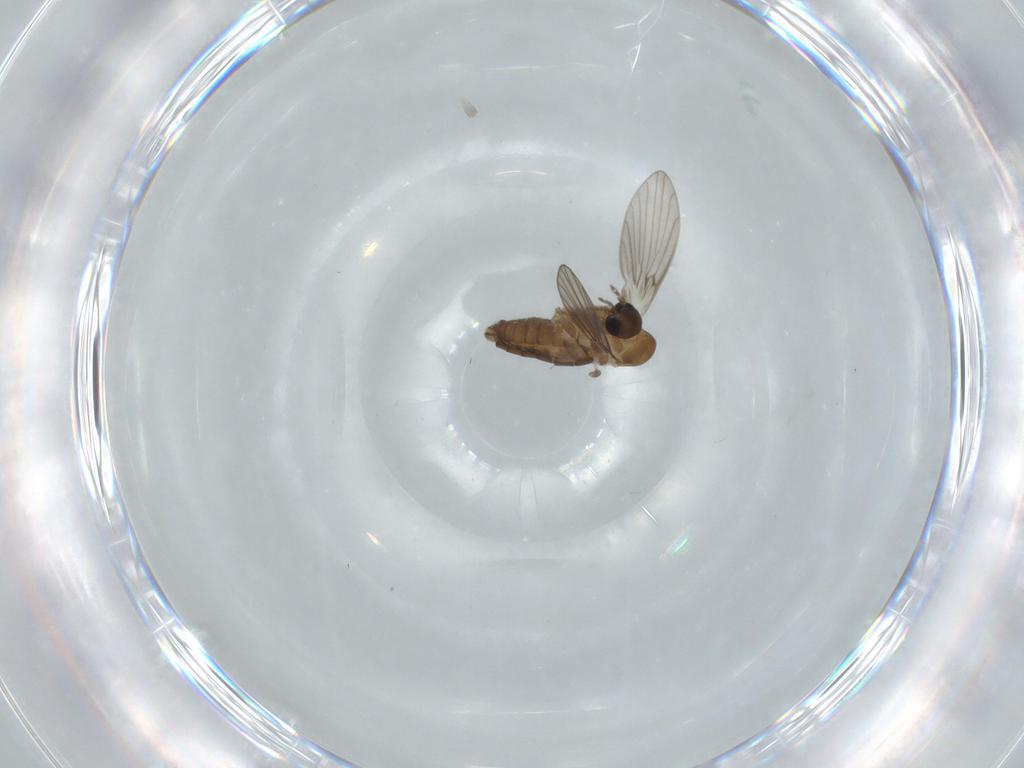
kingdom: Animalia
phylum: Arthropoda
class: Insecta
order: Diptera
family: Psychodidae
